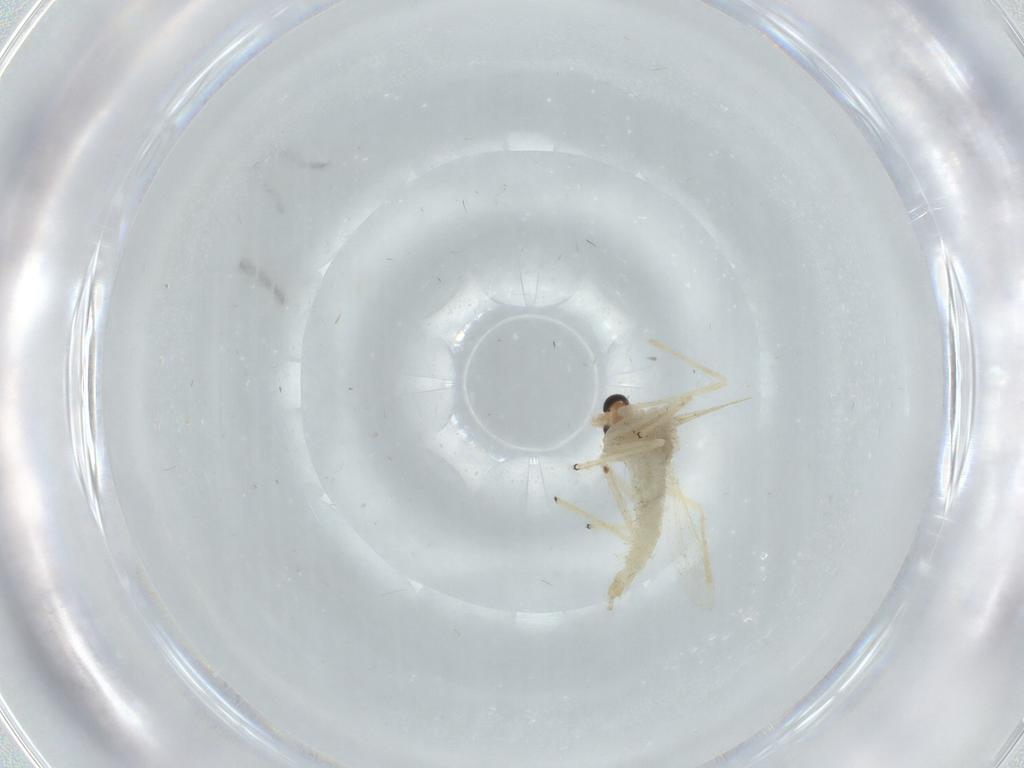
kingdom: Animalia
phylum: Arthropoda
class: Insecta
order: Diptera
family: Chironomidae
